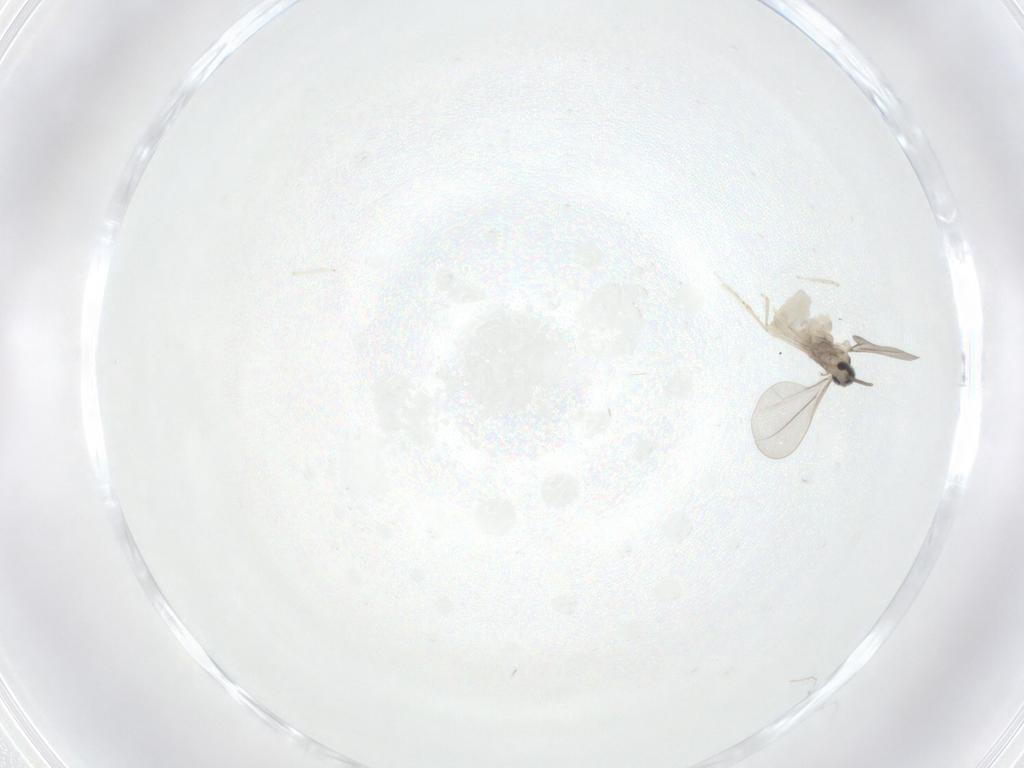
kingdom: Animalia
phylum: Arthropoda
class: Insecta
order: Diptera
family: Cecidomyiidae
